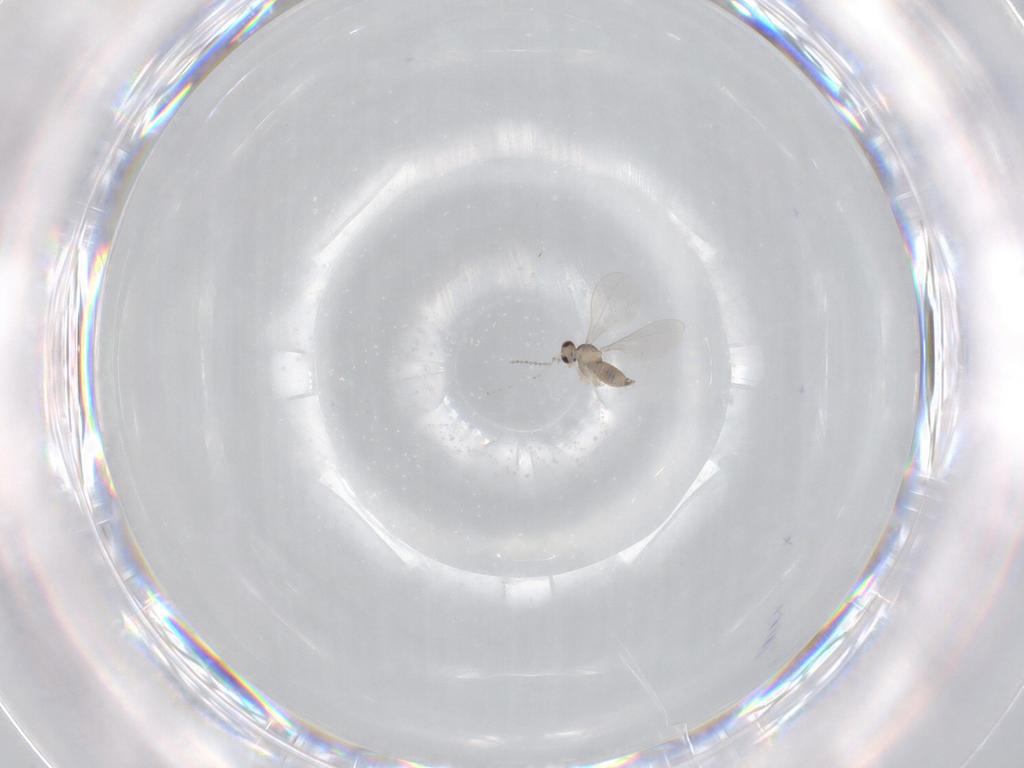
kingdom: Animalia
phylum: Arthropoda
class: Insecta
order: Diptera
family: Cecidomyiidae
